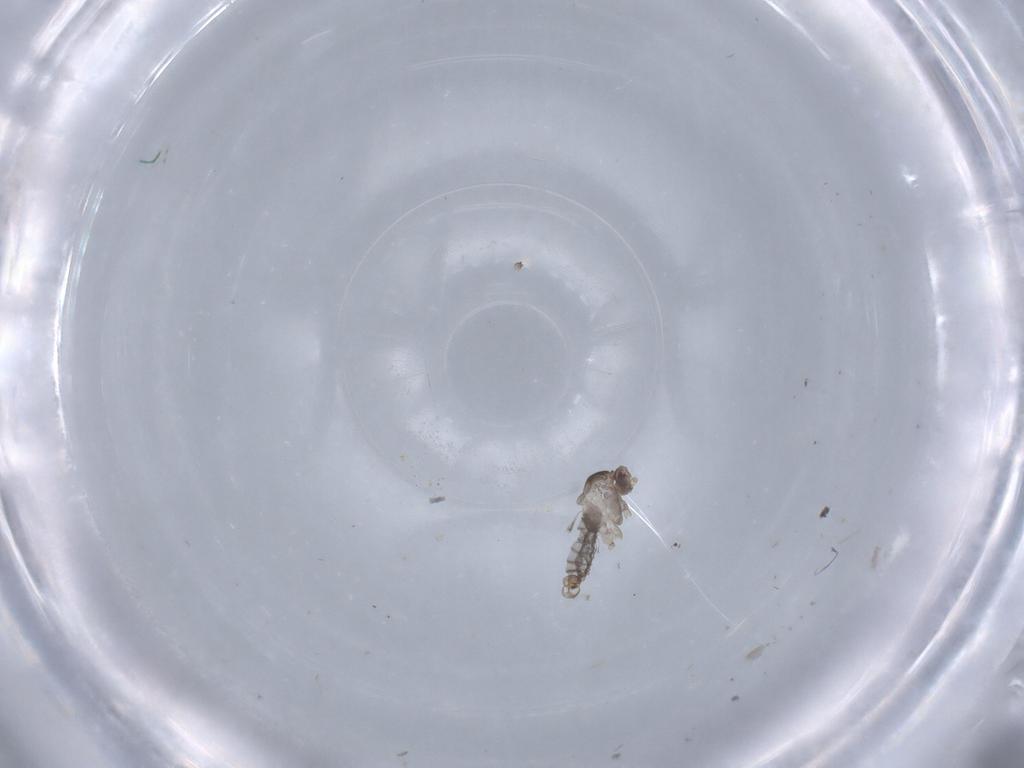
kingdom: Animalia
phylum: Arthropoda
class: Insecta
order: Diptera
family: Cecidomyiidae
